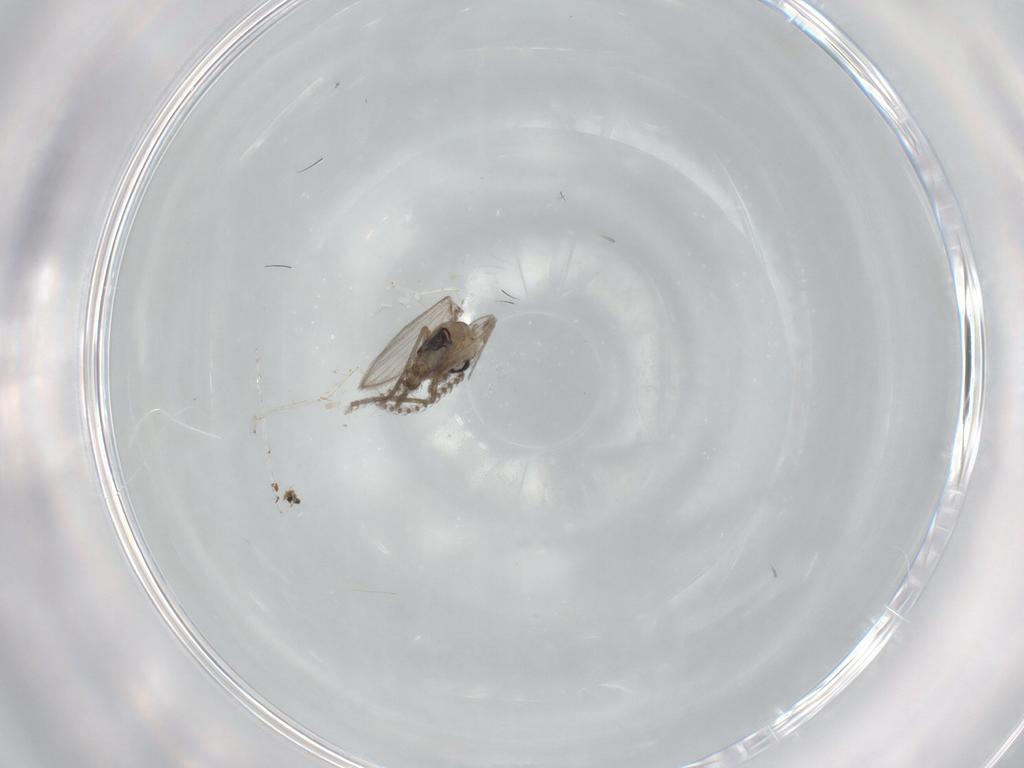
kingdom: Animalia
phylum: Arthropoda
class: Insecta
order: Diptera
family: Psychodidae
